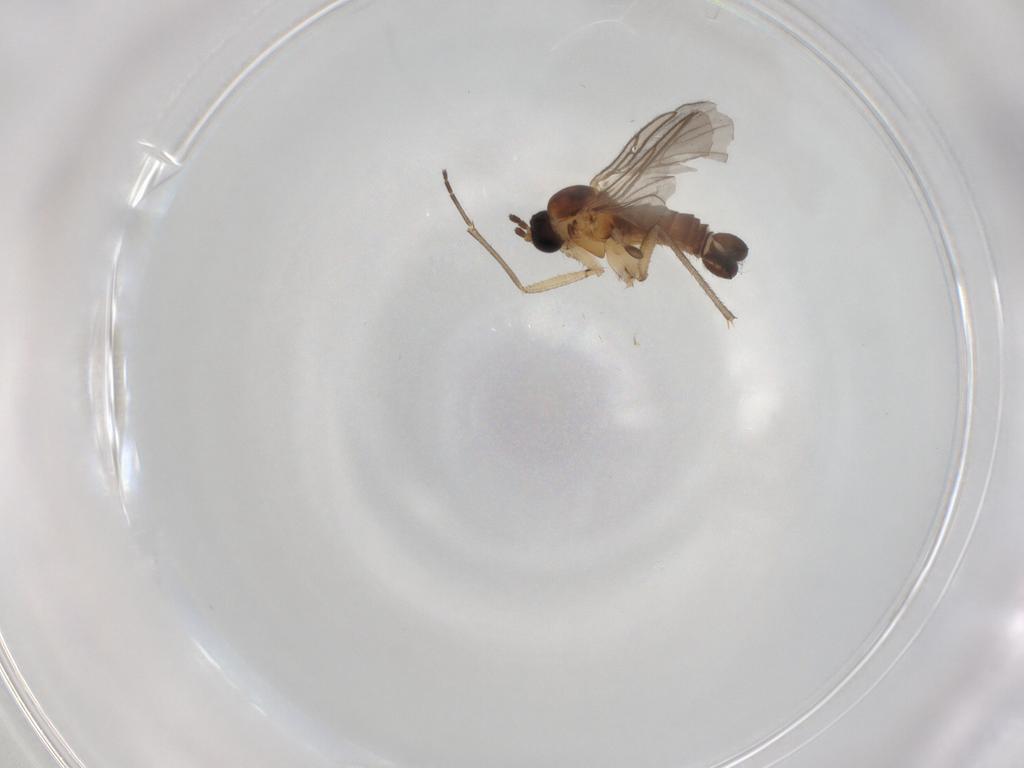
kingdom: Animalia
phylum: Arthropoda
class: Insecta
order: Diptera
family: Sciaridae
